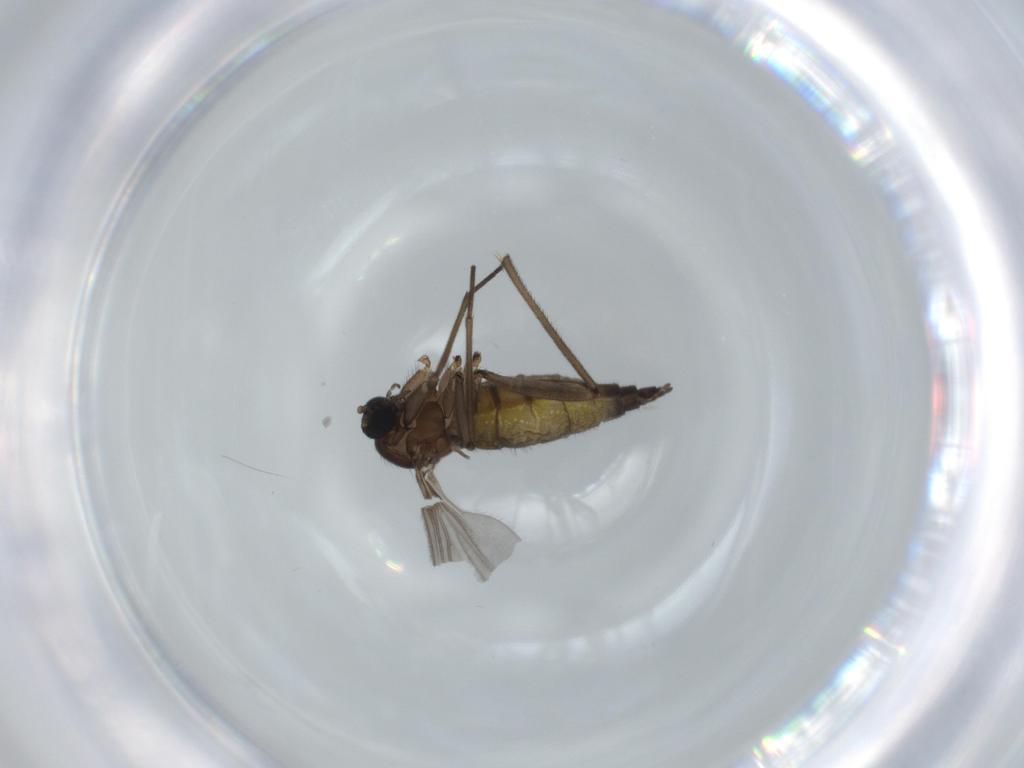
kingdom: Animalia
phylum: Arthropoda
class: Insecta
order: Diptera
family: Sciaridae
